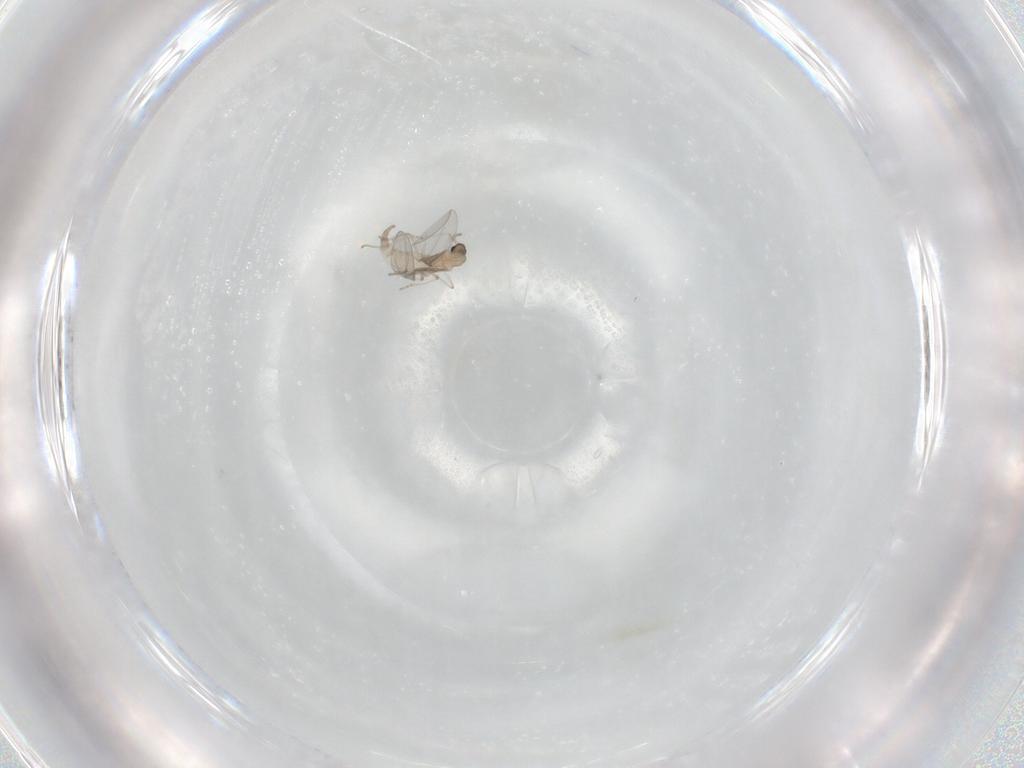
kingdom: Animalia
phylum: Arthropoda
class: Insecta
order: Diptera
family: Cecidomyiidae
